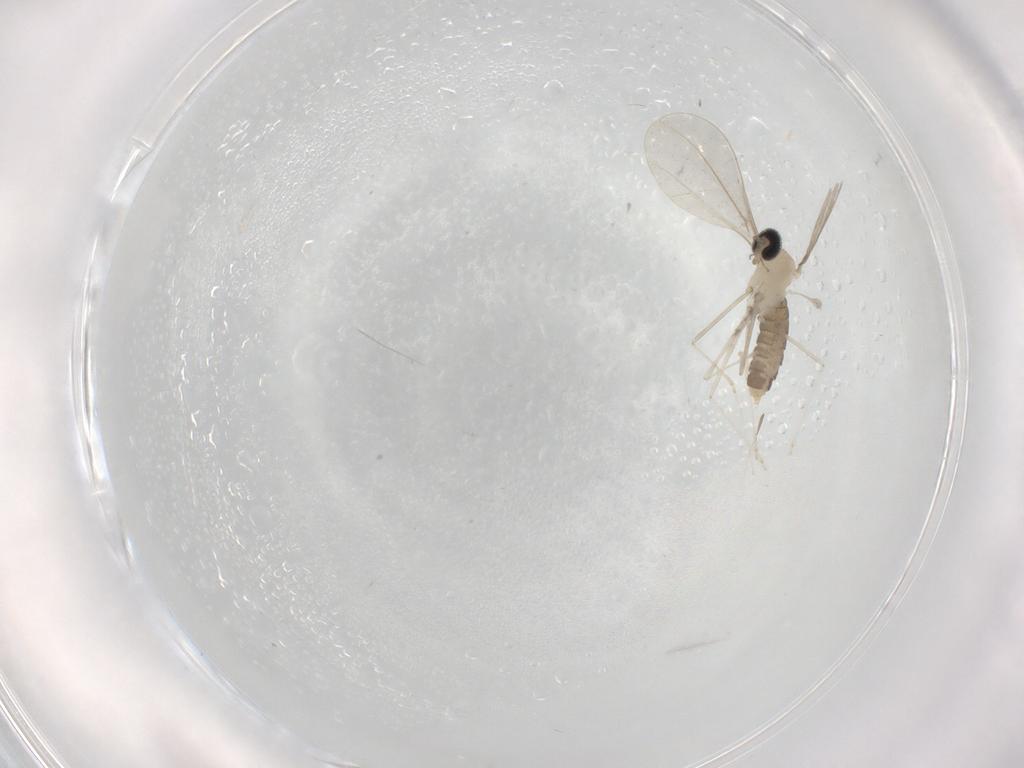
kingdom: Animalia
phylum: Arthropoda
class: Insecta
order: Diptera
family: Cecidomyiidae
